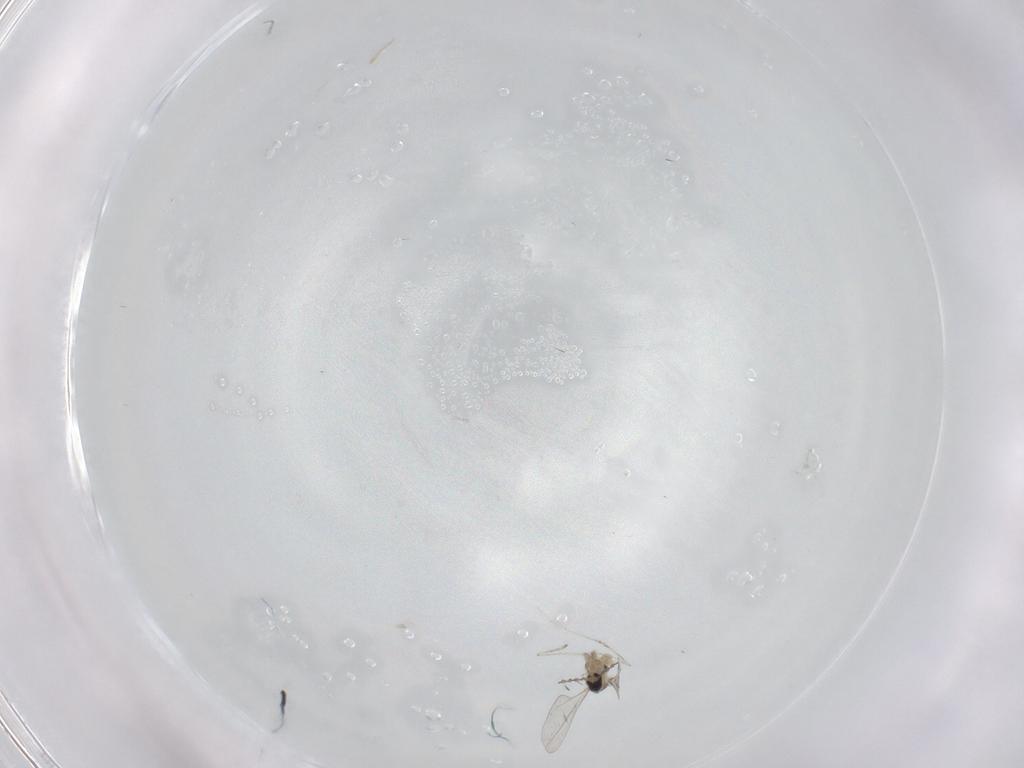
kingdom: Animalia
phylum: Arthropoda
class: Insecta
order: Diptera
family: Cecidomyiidae
